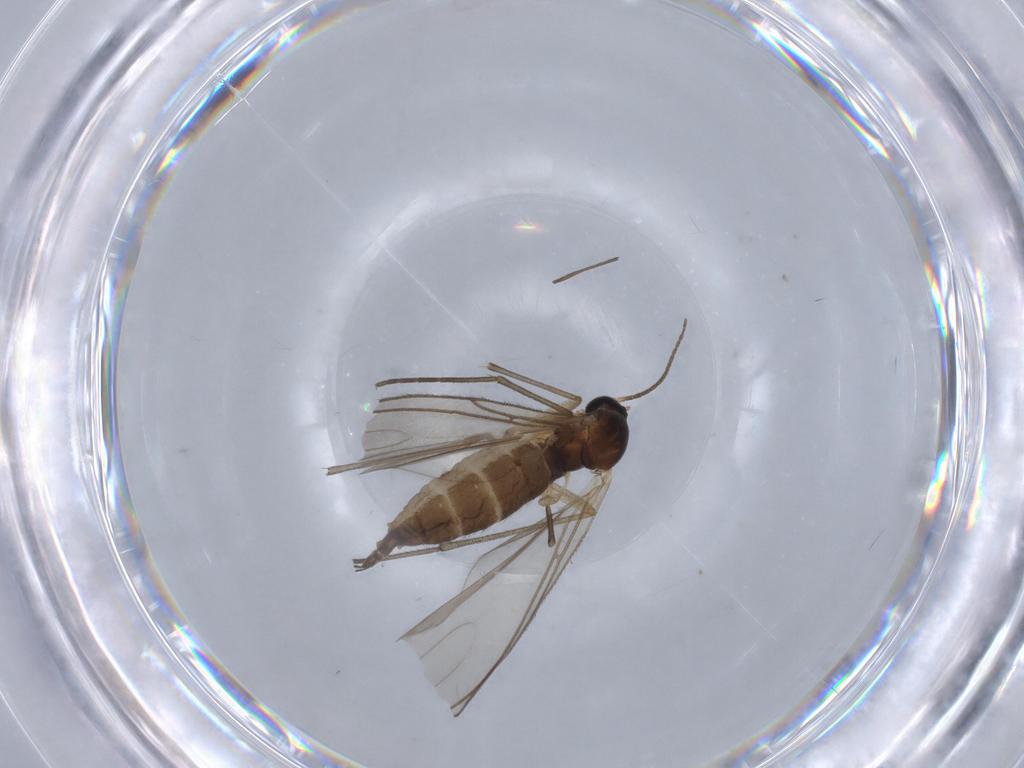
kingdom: Animalia
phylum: Arthropoda
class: Insecta
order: Diptera
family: Sciaridae
